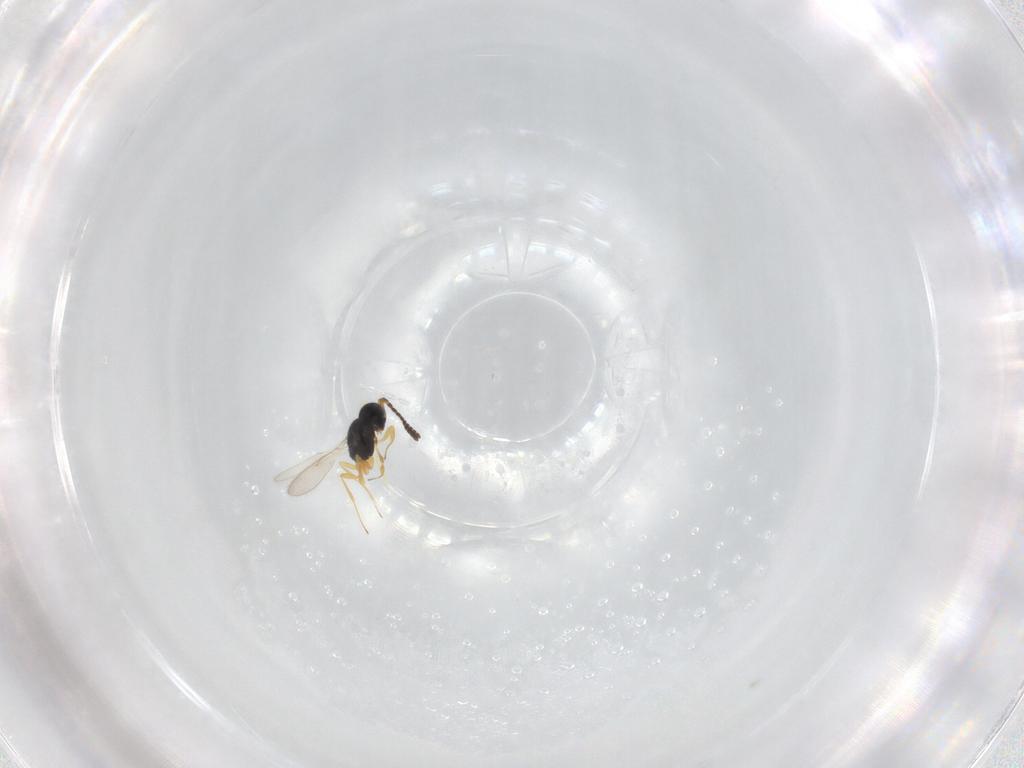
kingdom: Animalia
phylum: Arthropoda
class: Insecta
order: Hymenoptera
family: Scelionidae
